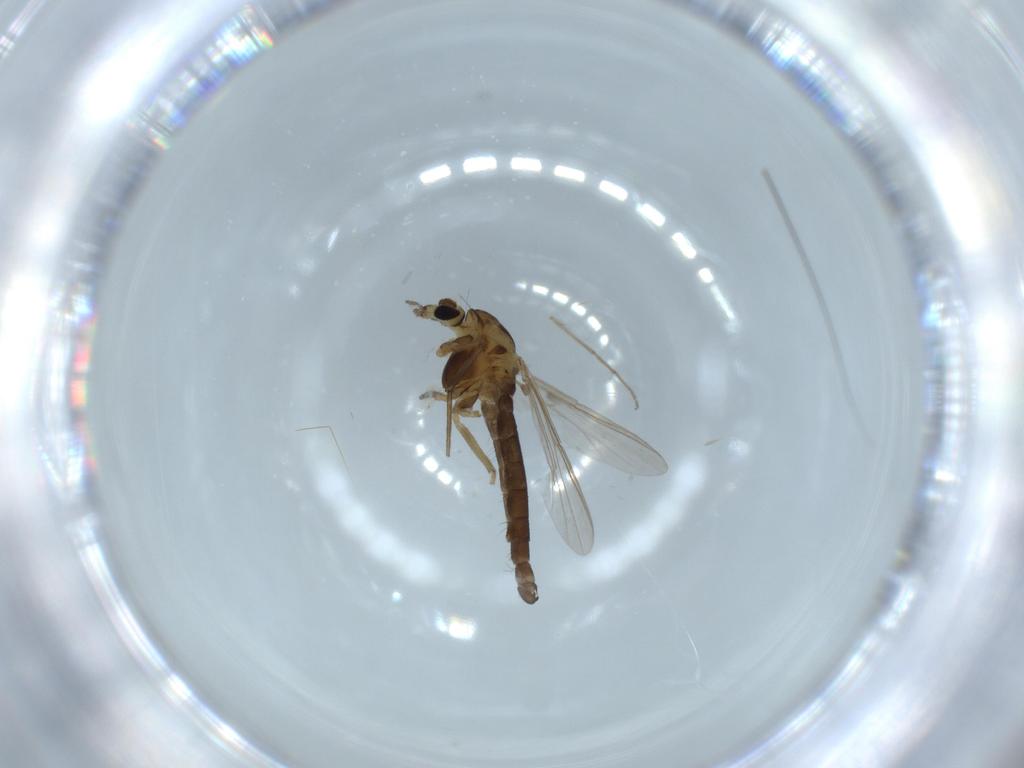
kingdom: Animalia
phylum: Arthropoda
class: Insecta
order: Diptera
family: Chironomidae
